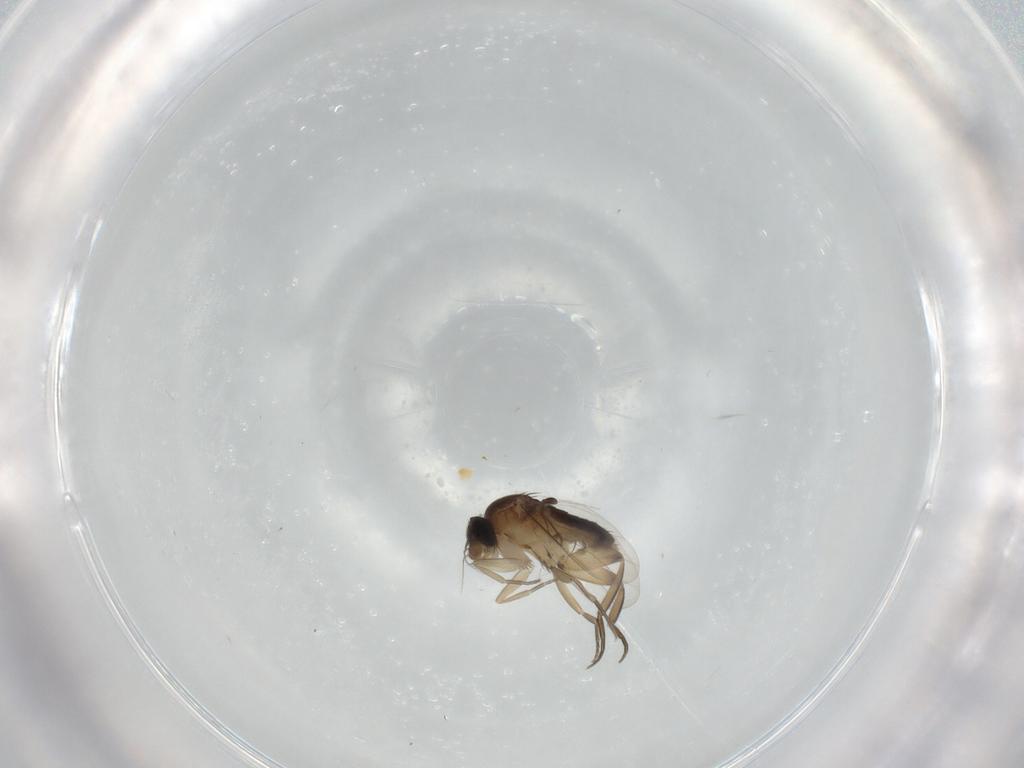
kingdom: Animalia
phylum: Arthropoda
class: Insecta
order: Diptera
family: Phoridae
